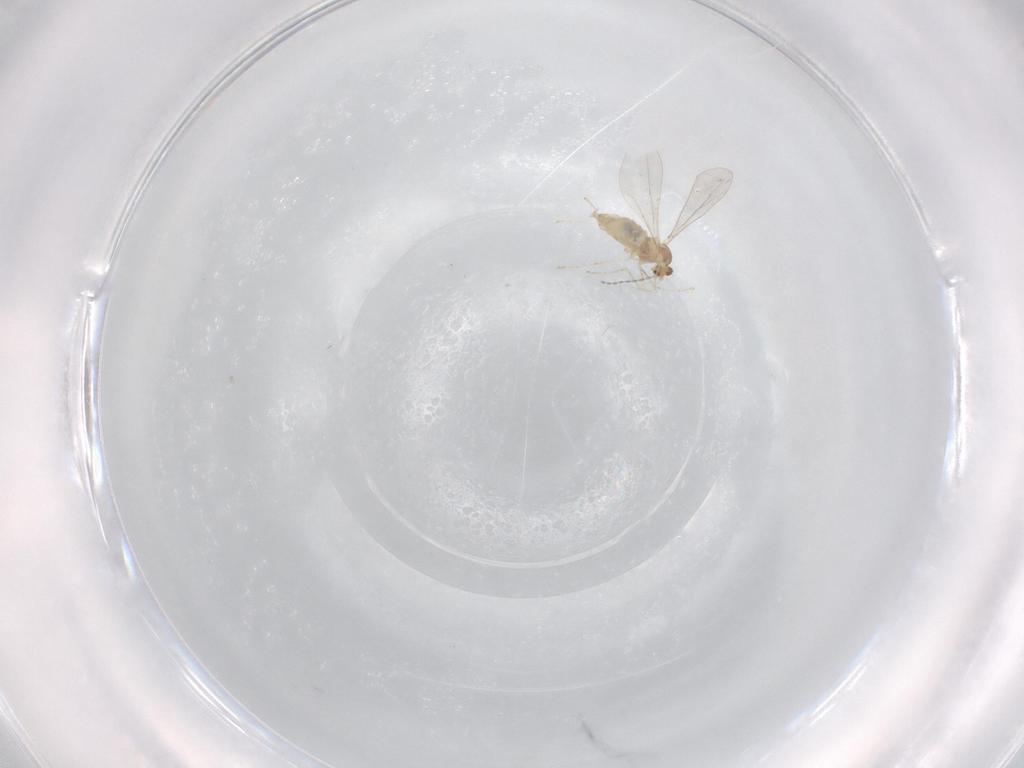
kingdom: Animalia
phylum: Arthropoda
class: Insecta
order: Diptera
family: Cecidomyiidae
